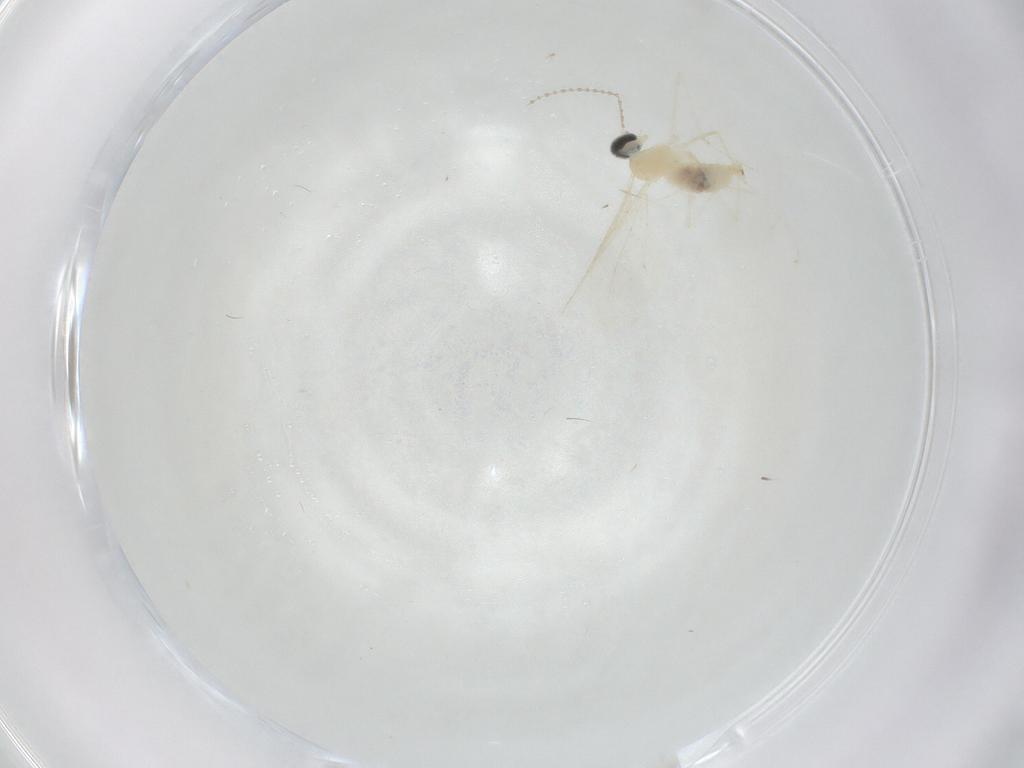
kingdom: Animalia
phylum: Arthropoda
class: Insecta
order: Diptera
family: Cecidomyiidae
